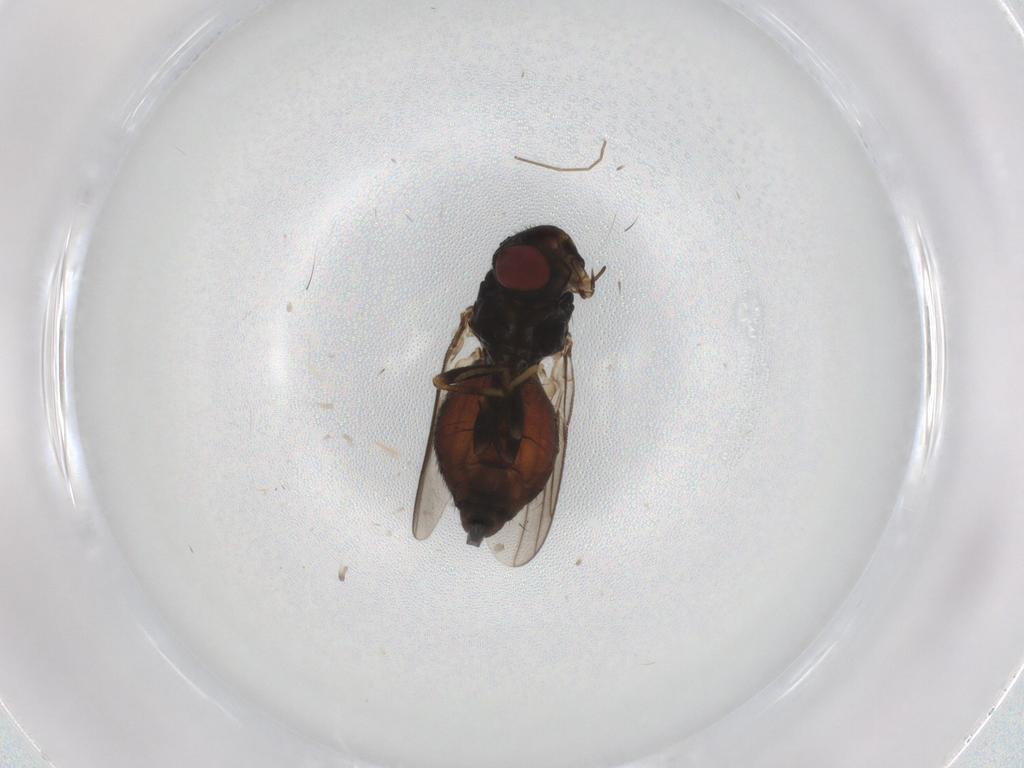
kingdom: Animalia
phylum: Arthropoda
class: Insecta
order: Diptera
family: Chloropidae
